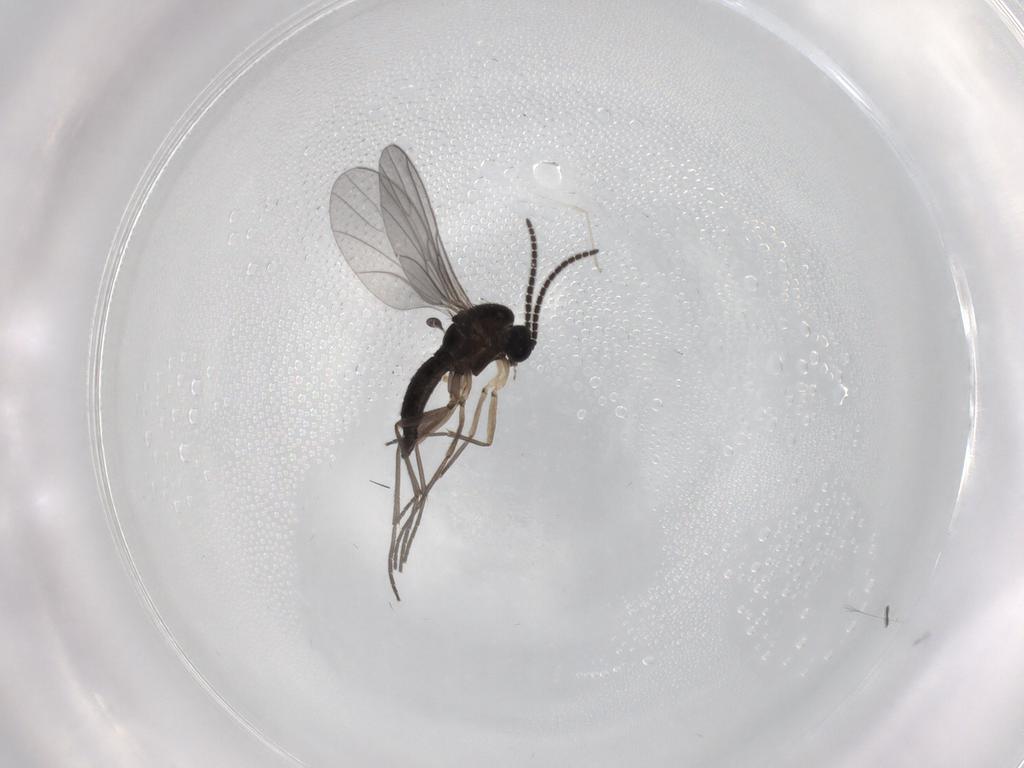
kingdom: Animalia
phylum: Arthropoda
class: Insecta
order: Diptera
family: Sciaridae
